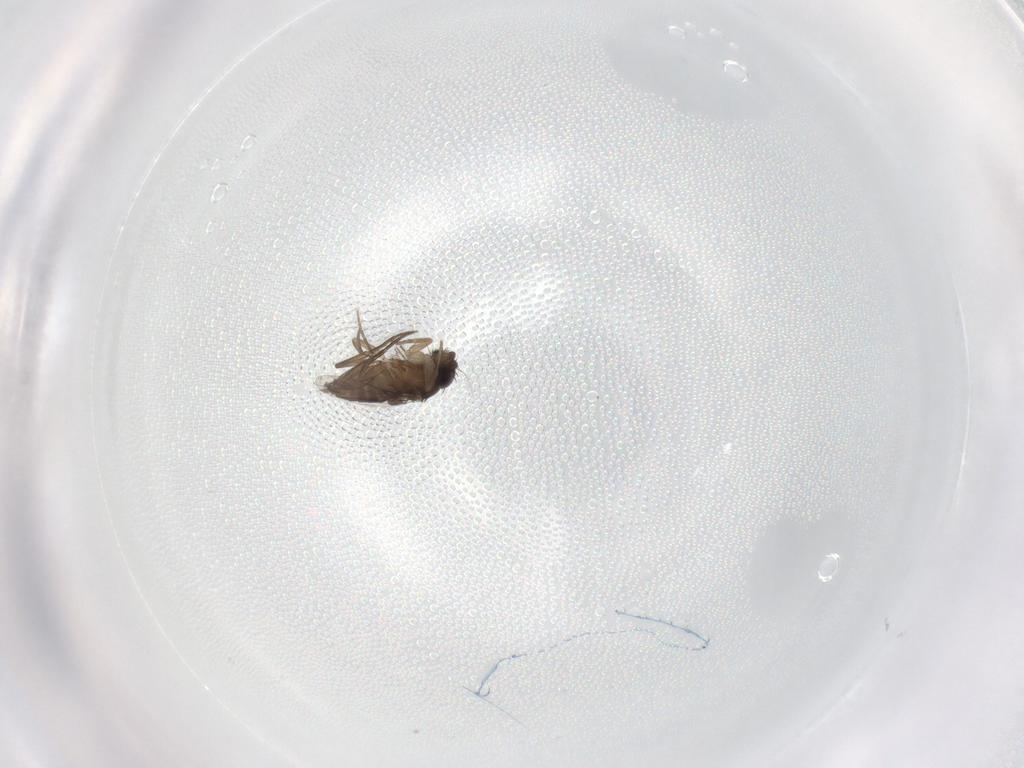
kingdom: Animalia
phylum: Arthropoda
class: Insecta
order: Diptera
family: Phoridae
